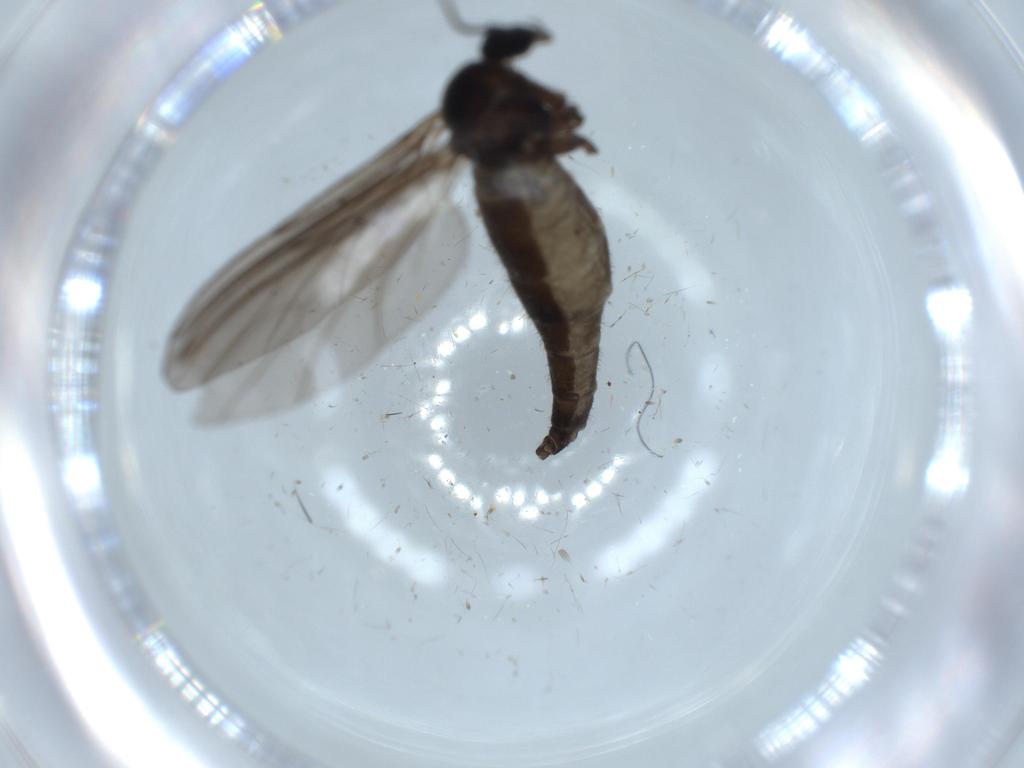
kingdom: Animalia
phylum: Arthropoda
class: Insecta
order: Diptera
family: Sciaridae
